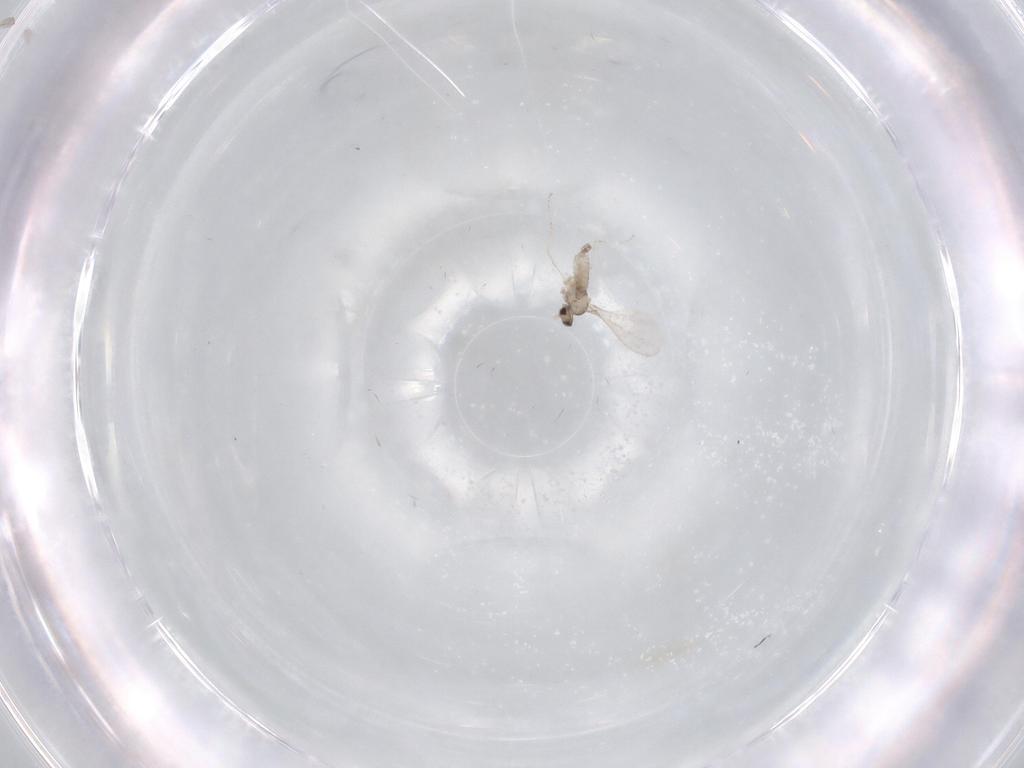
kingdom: Animalia
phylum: Arthropoda
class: Insecta
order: Diptera
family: Cecidomyiidae
